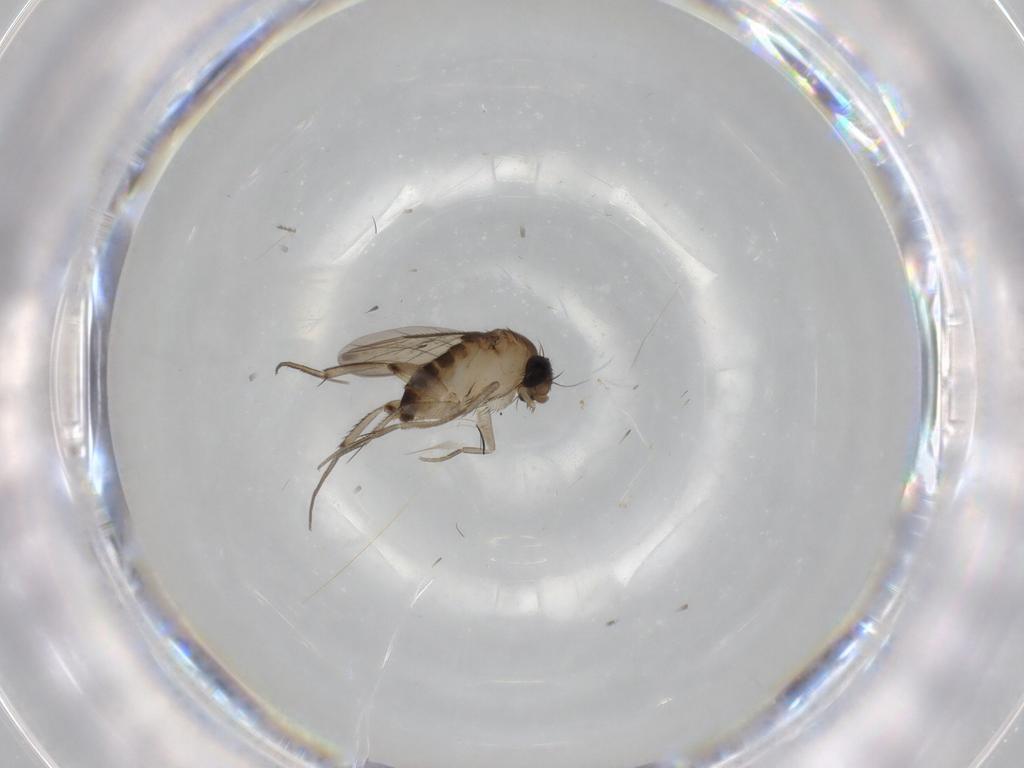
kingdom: Animalia
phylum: Arthropoda
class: Insecta
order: Diptera
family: Phoridae
